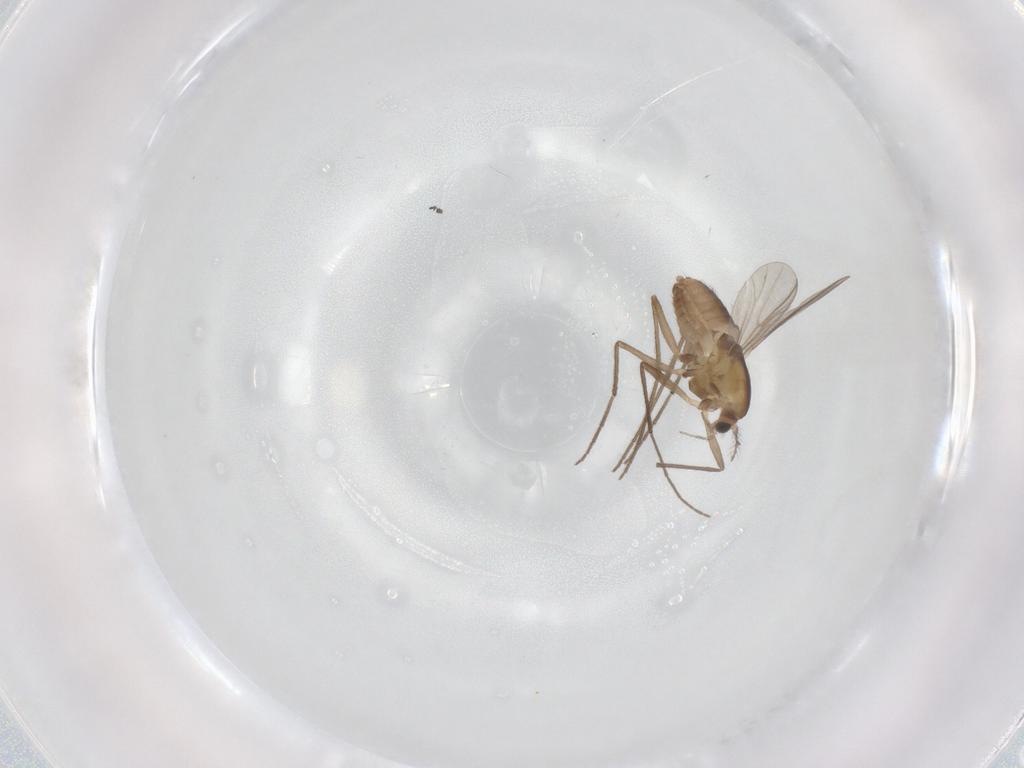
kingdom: Animalia
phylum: Arthropoda
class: Insecta
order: Diptera
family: Chironomidae
